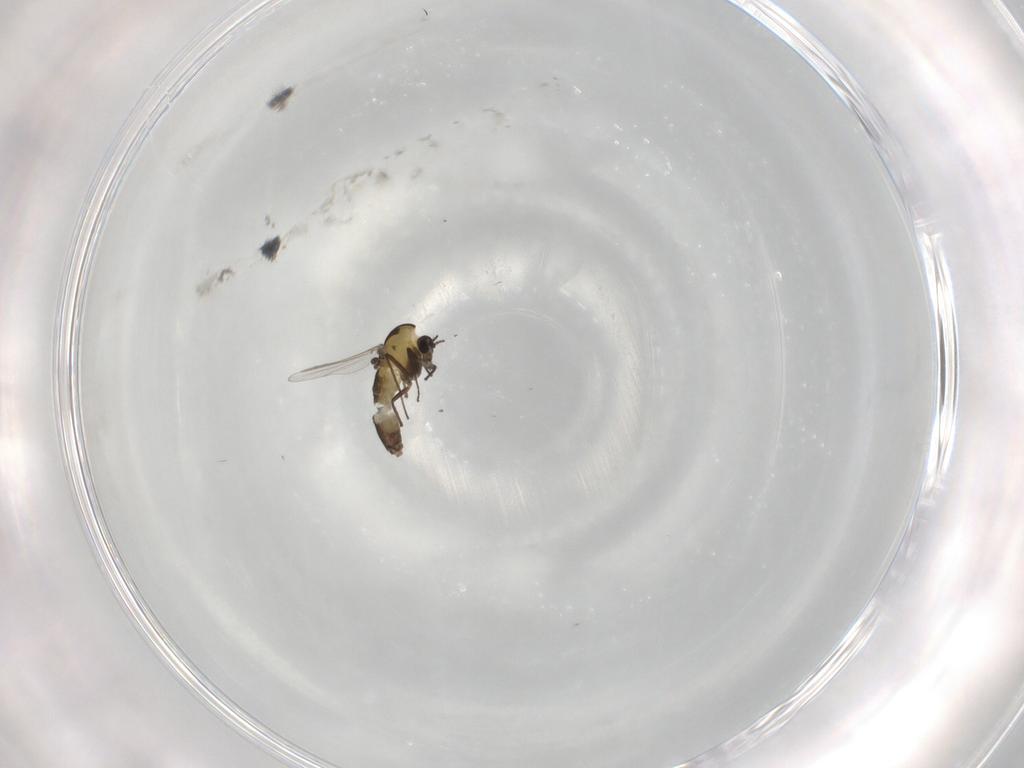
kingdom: Animalia
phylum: Arthropoda
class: Insecta
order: Diptera
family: Chironomidae
